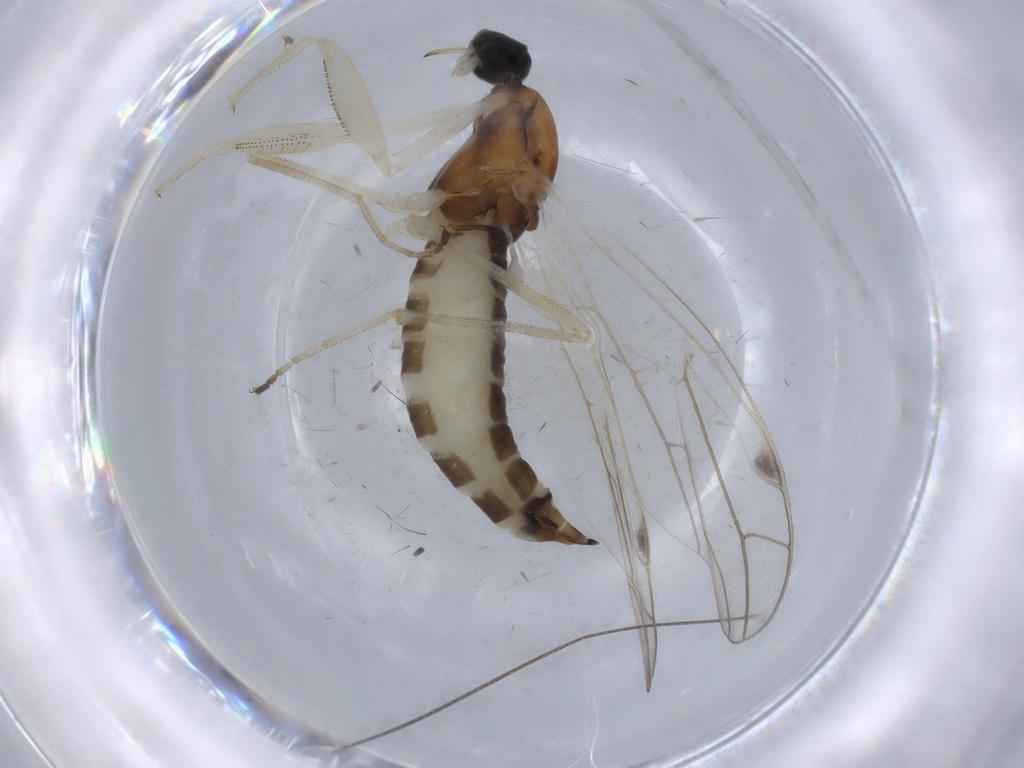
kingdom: Animalia
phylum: Arthropoda
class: Insecta
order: Diptera
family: Empididae
